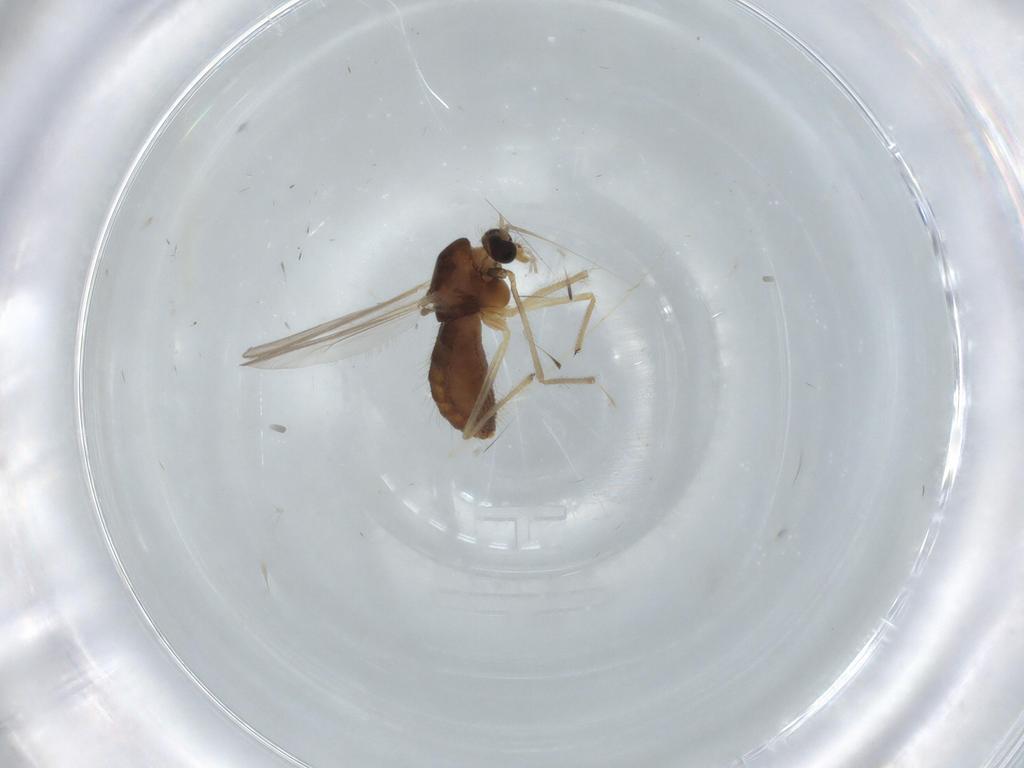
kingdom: Animalia
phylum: Arthropoda
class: Insecta
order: Diptera
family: Chironomidae
